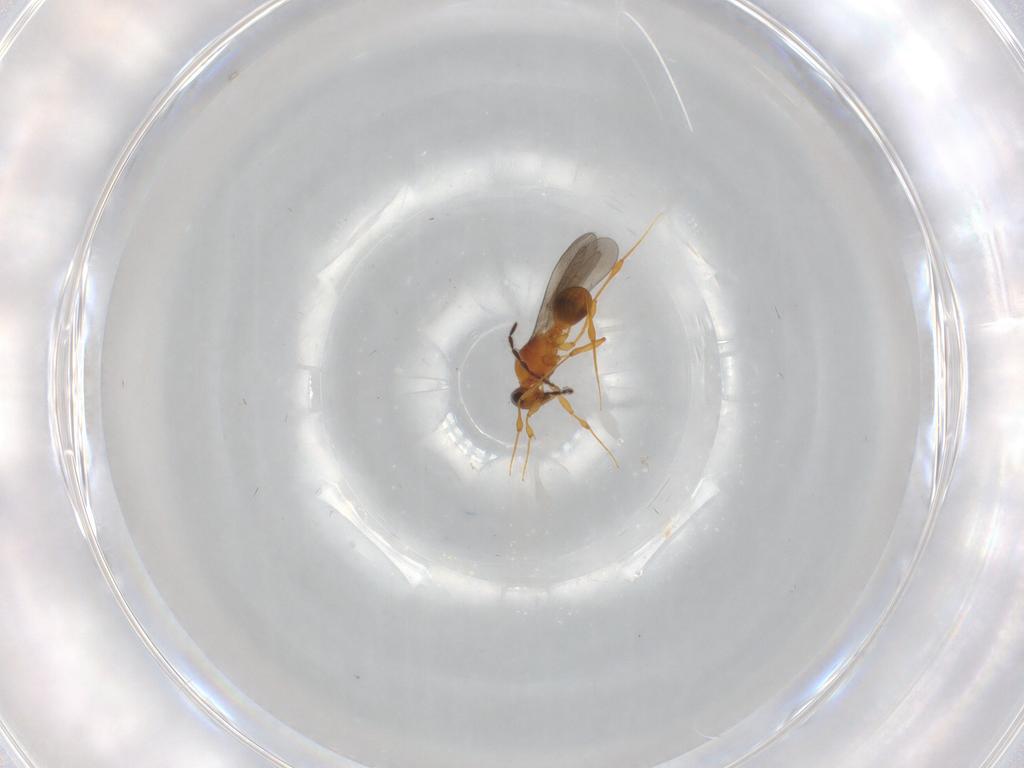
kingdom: Animalia
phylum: Arthropoda
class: Insecta
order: Hymenoptera
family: Platygastridae
